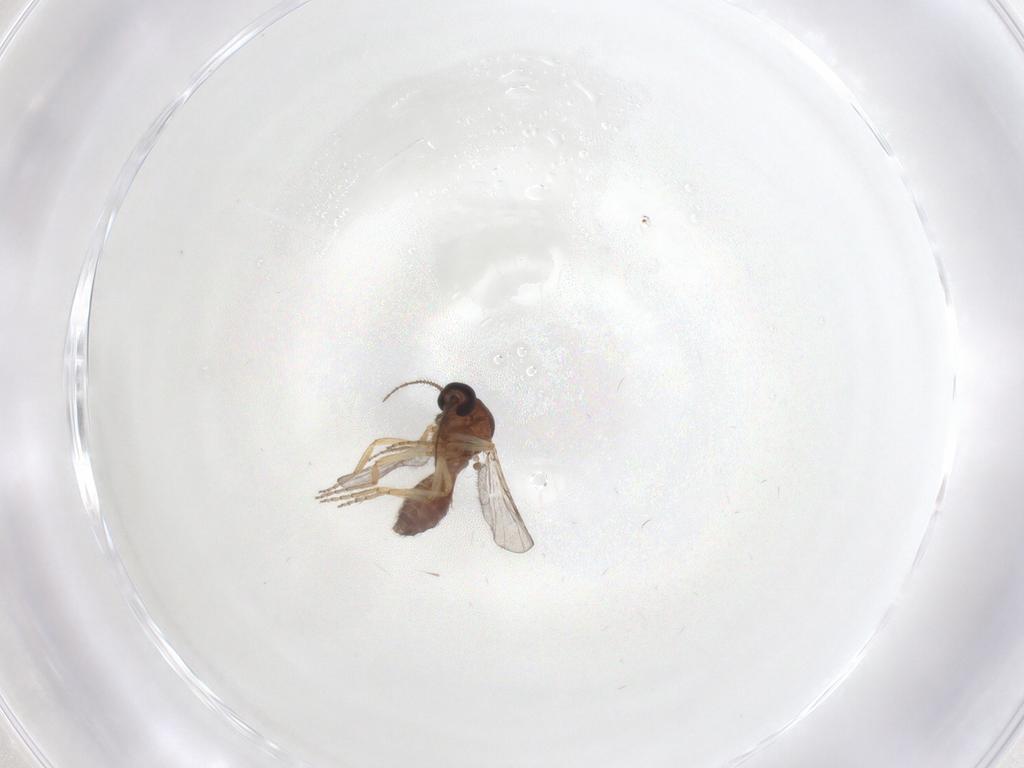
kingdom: Animalia
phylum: Arthropoda
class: Insecta
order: Diptera
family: Ceratopogonidae
